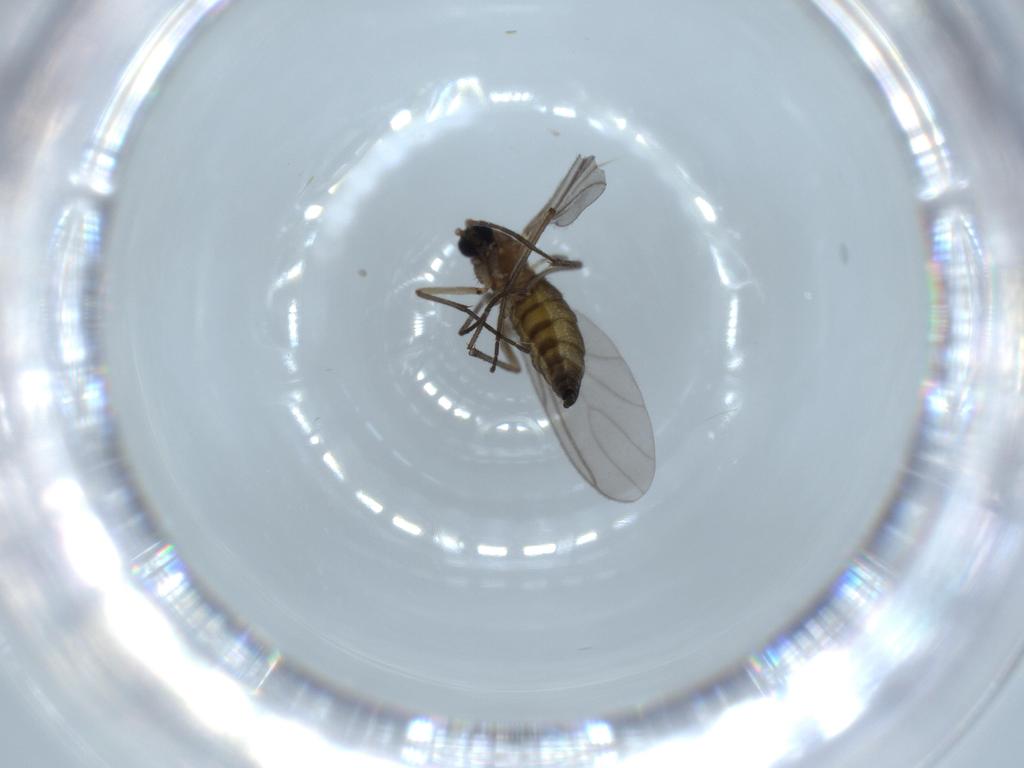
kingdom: Animalia
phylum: Arthropoda
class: Insecta
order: Diptera
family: Sciaridae
